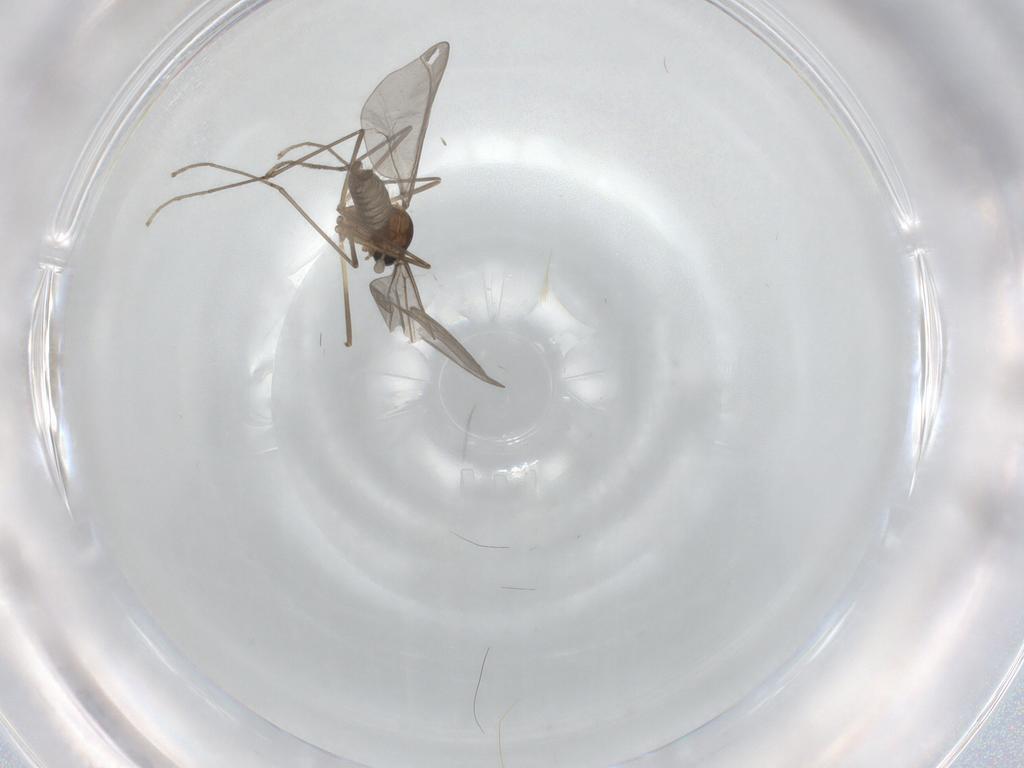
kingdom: Animalia
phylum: Arthropoda
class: Insecta
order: Diptera
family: Cecidomyiidae
